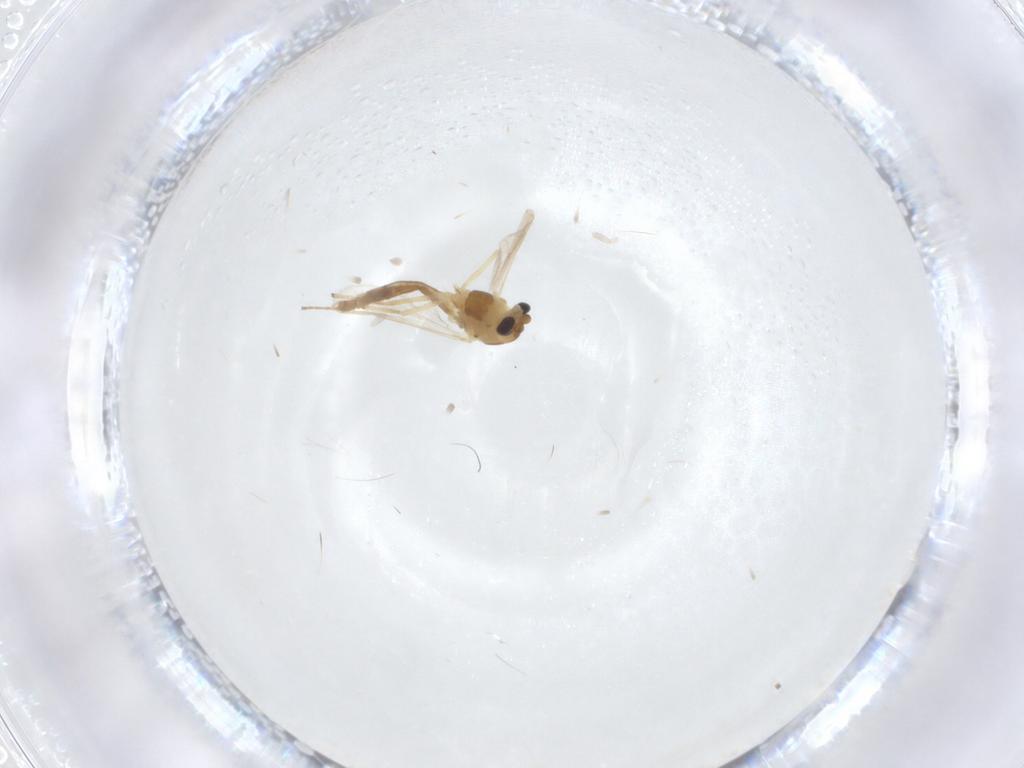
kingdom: Animalia
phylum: Arthropoda
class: Insecta
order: Diptera
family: Chironomidae
